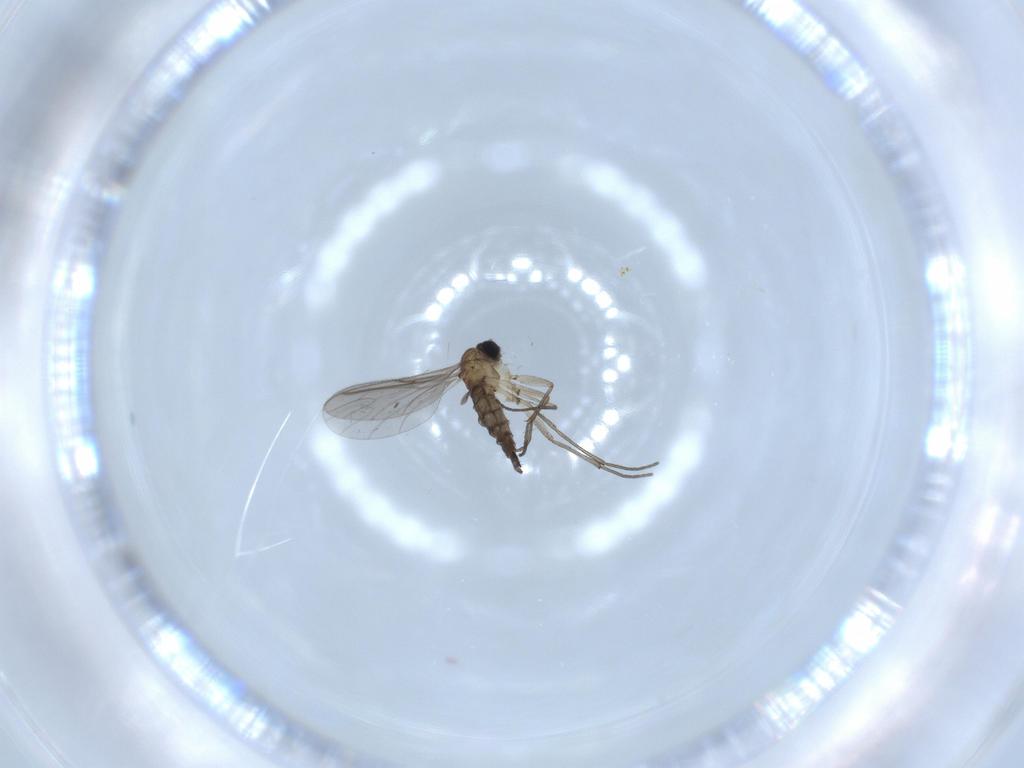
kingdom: Animalia
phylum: Arthropoda
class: Insecta
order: Diptera
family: Sciaridae
